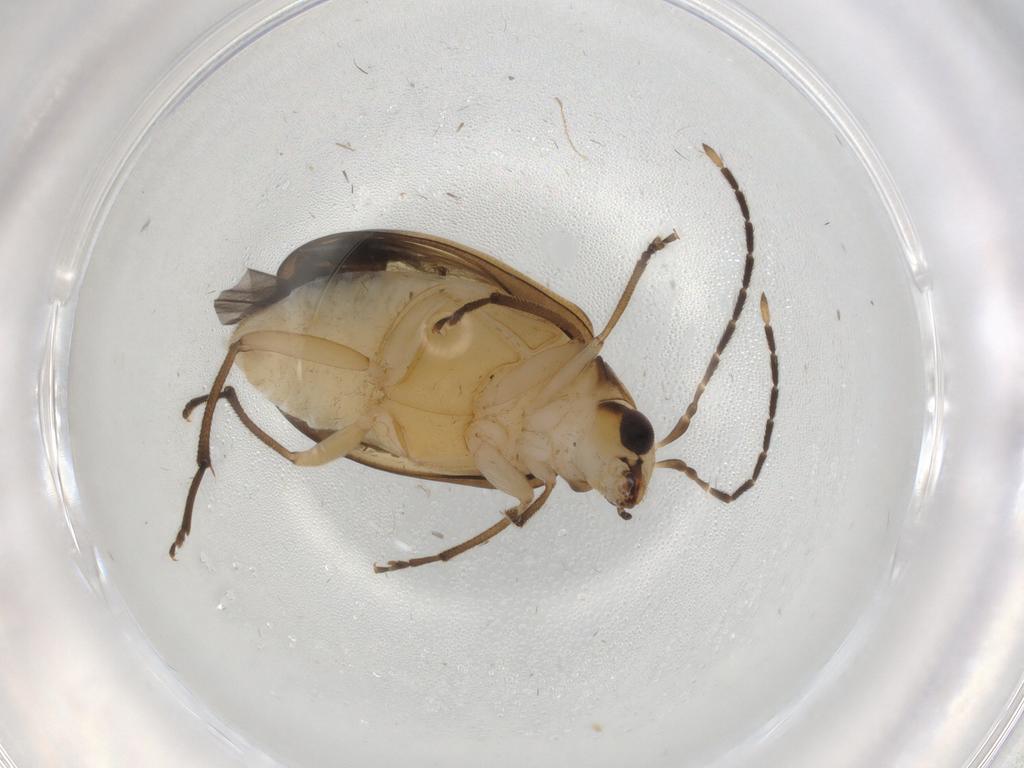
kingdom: Animalia
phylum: Arthropoda
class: Insecta
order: Coleoptera
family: Chrysomelidae
